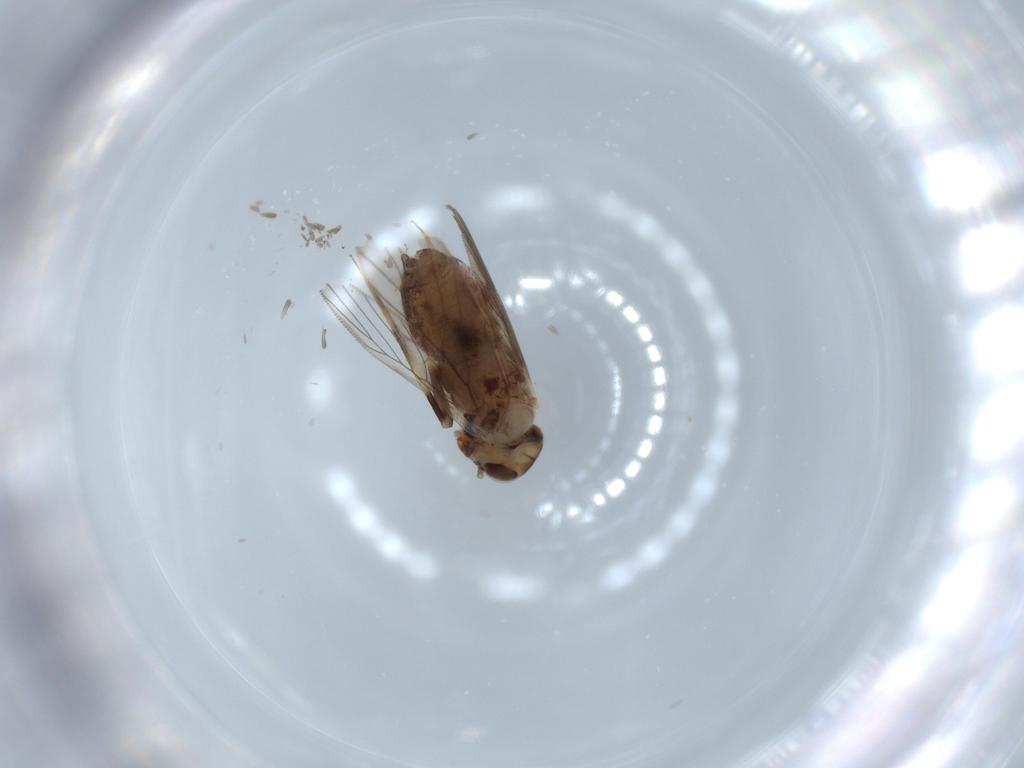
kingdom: Animalia
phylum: Arthropoda
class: Insecta
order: Psocodea
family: Lepidopsocidae
